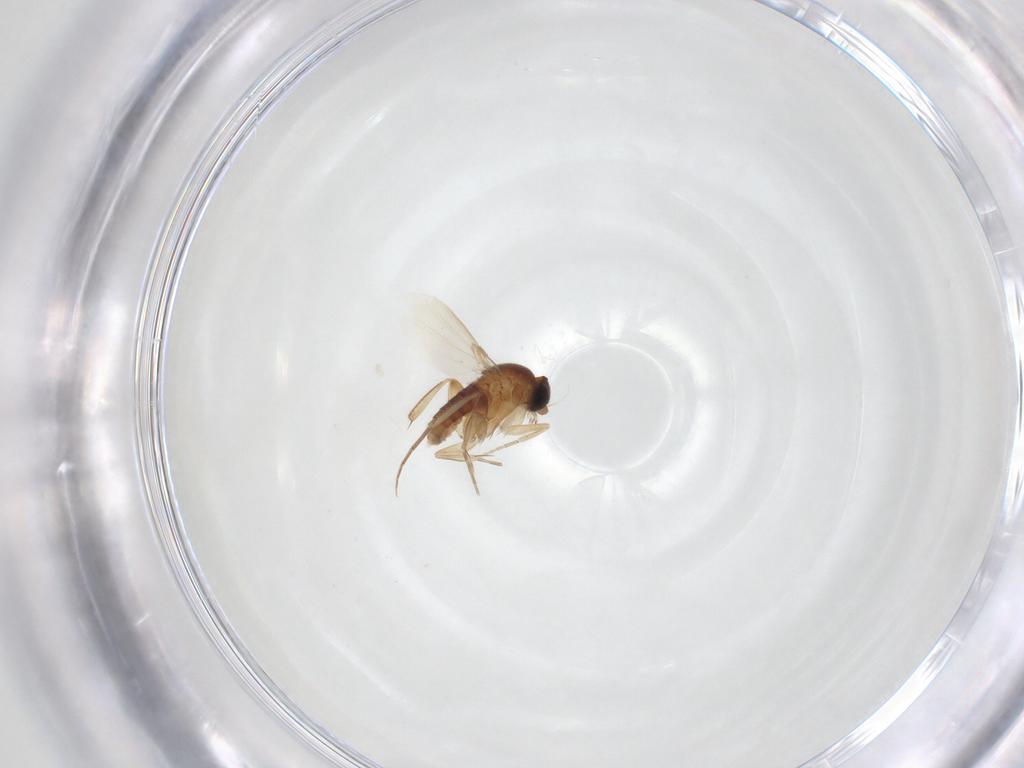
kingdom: Animalia
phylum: Arthropoda
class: Insecta
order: Diptera
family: Phoridae
